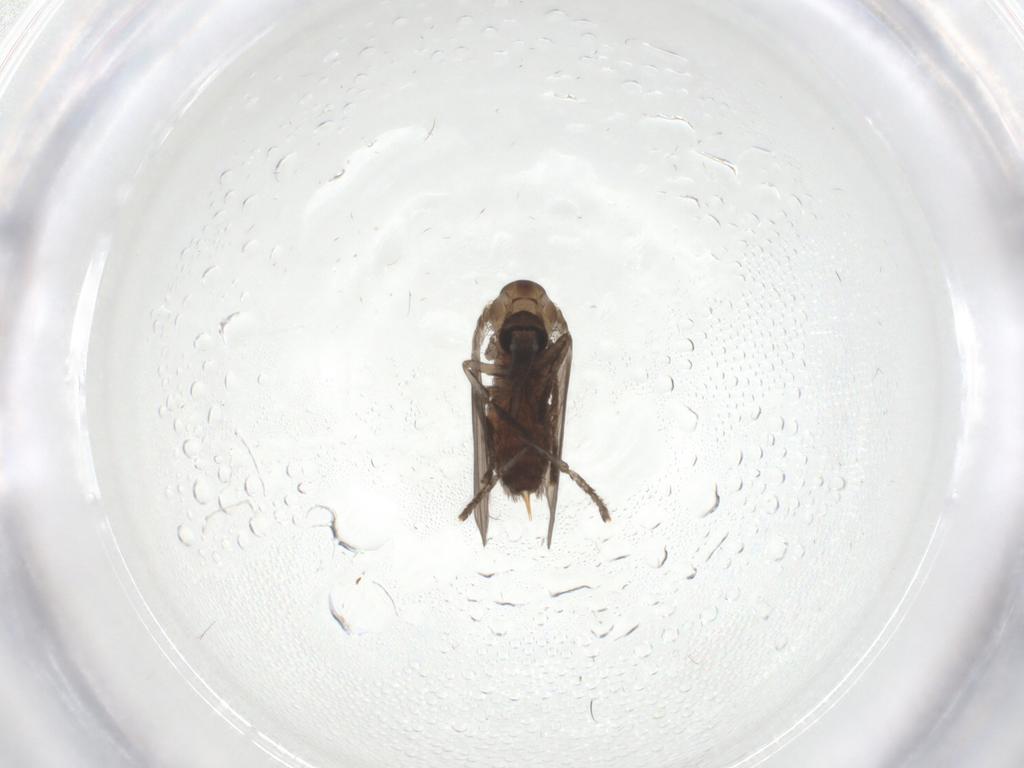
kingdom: Animalia
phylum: Arthropoda
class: Insecta
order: Diptera
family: Psychodidae
